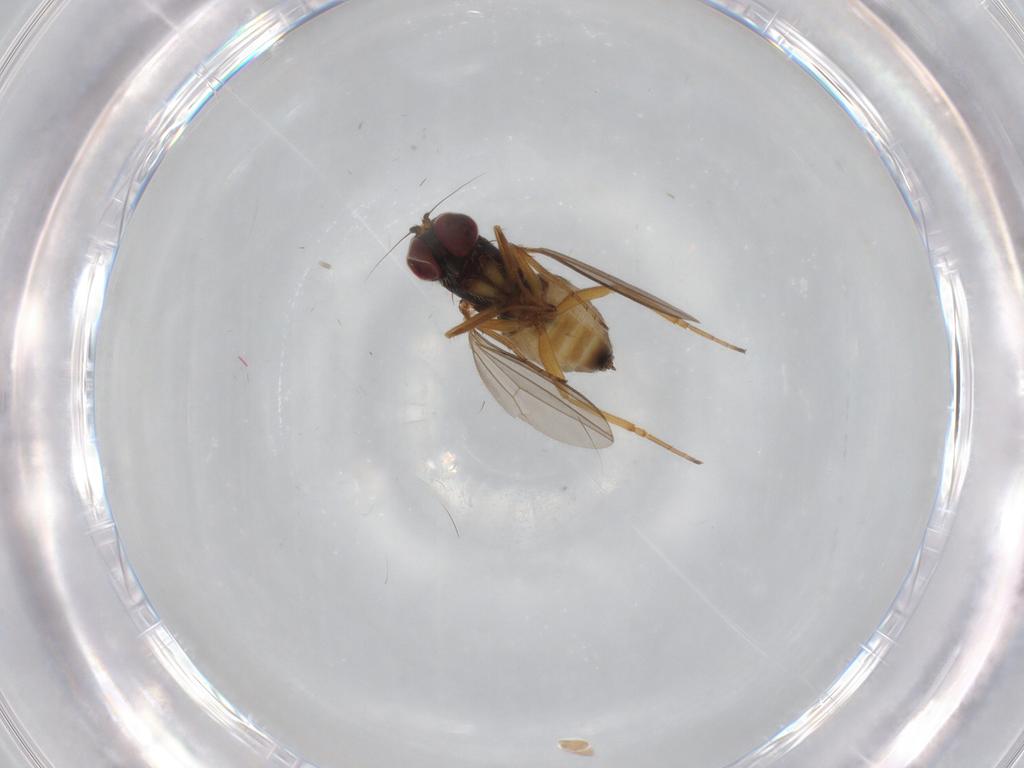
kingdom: Animalia
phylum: Arthropoda
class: Insecta
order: Diptera
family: Dolichopodidae
